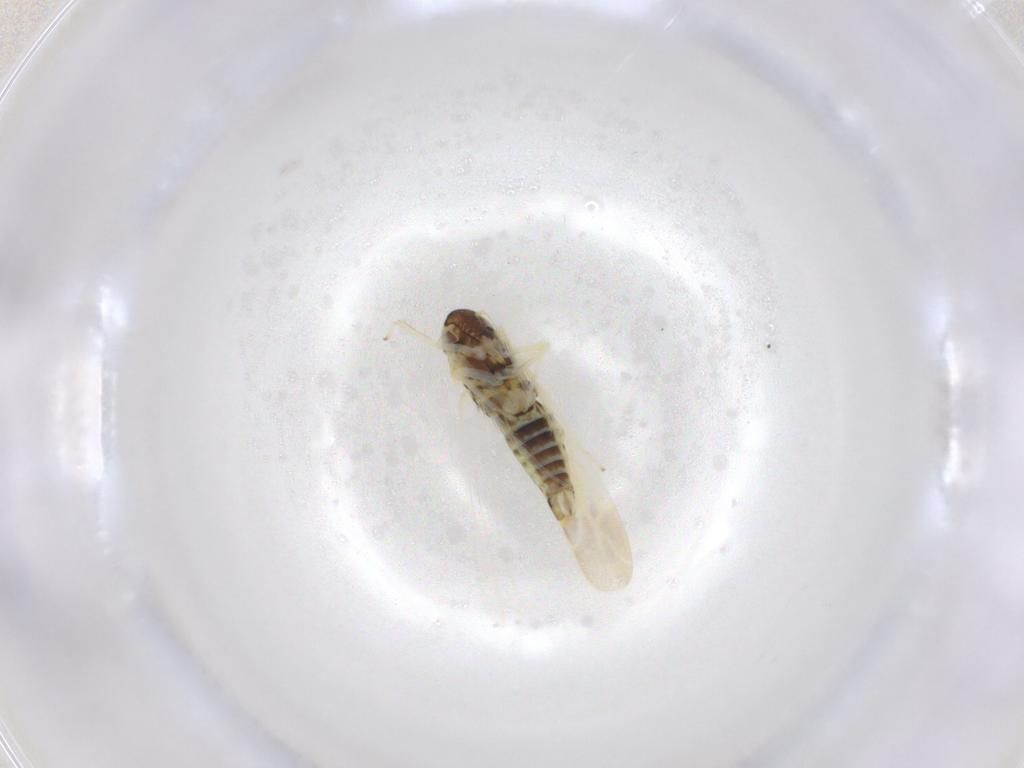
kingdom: Animalia
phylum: Arthropoda
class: Insecta
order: Hemiptera
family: Cicadellidae
